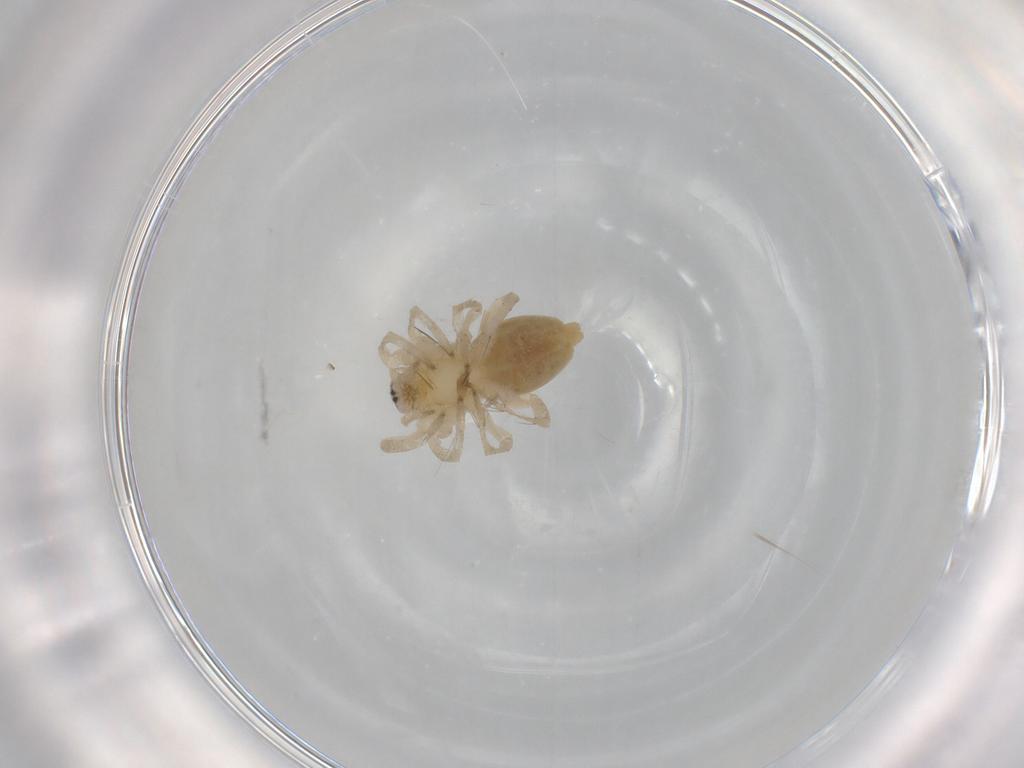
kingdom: Animalia
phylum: Arthropoda
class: Arachnida
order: Araneae
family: Clubionidae
